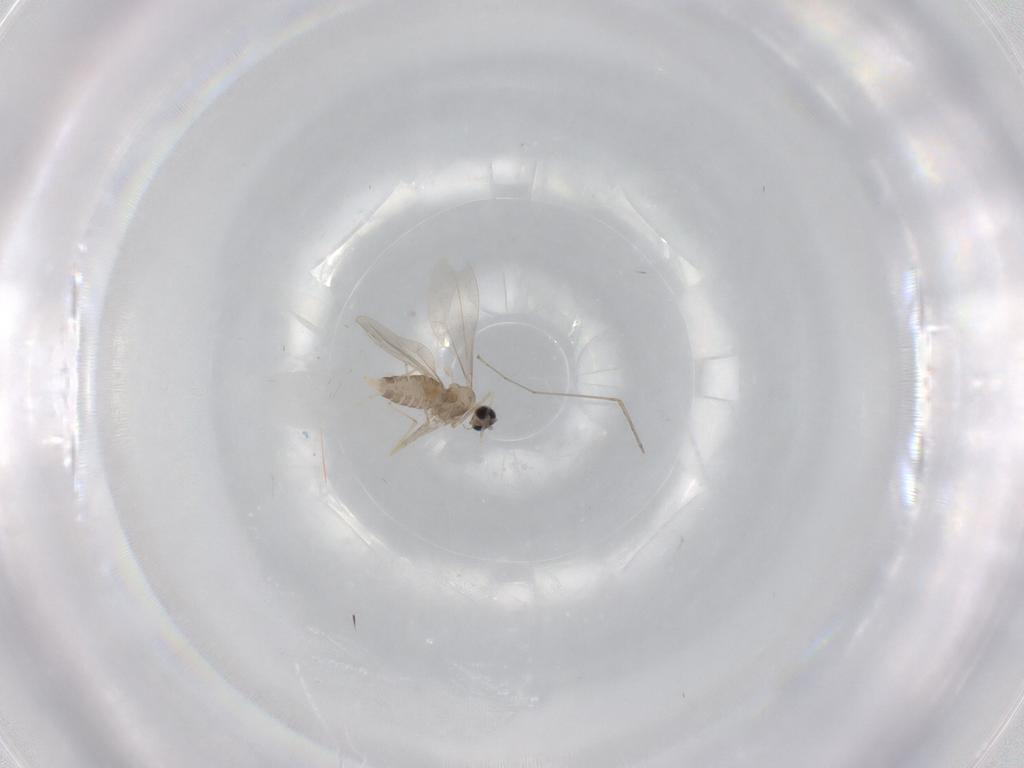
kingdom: Animalia
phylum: Arthropoda
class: Insecta
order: Diptera
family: Cecidomyiidae
